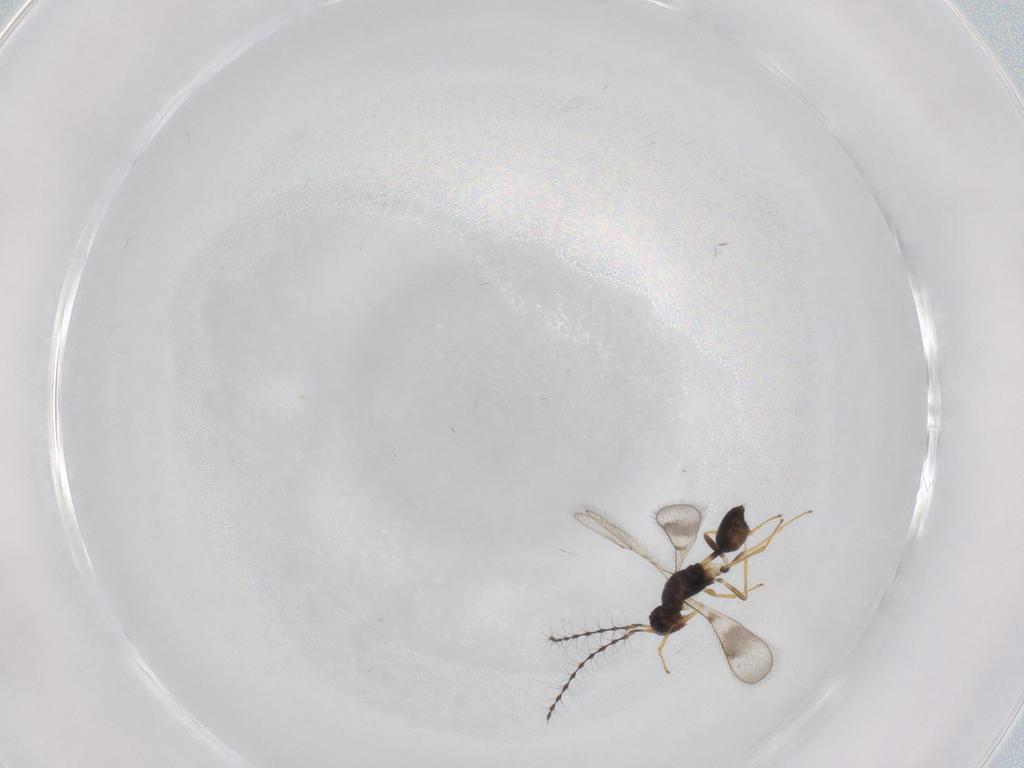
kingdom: Animalia
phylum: Arthropoda
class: Insecta
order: Hymenoptera
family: Diparidae
